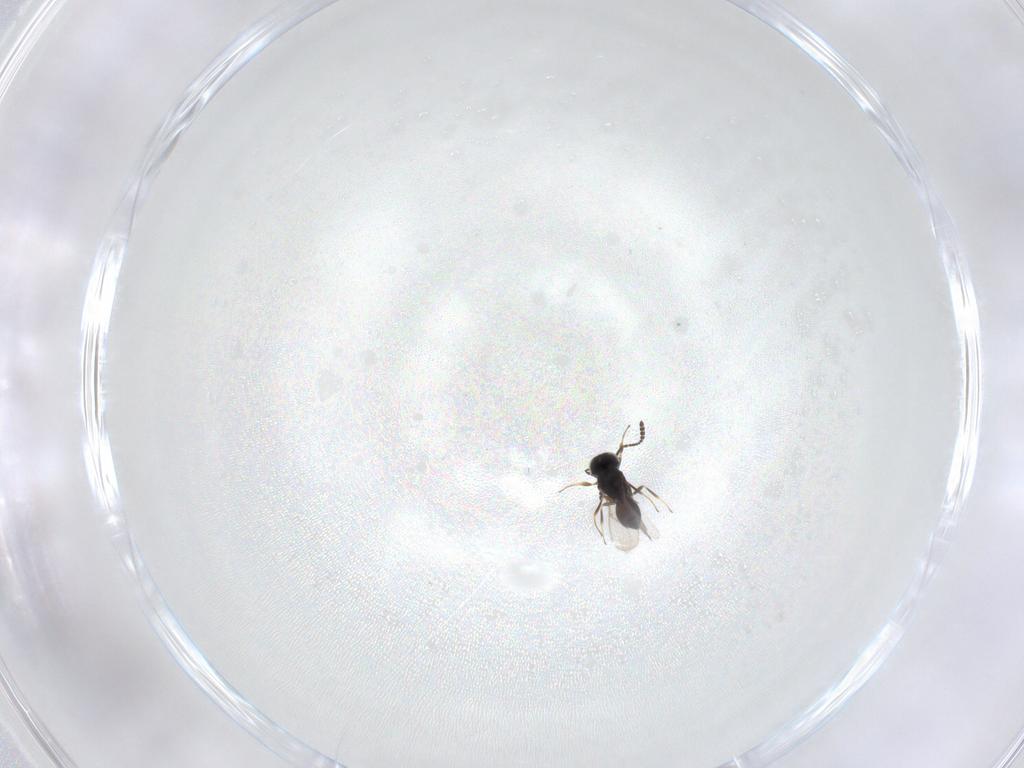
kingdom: Animalia
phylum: Arthropoda
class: Insecta
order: Hymenoptera
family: Scelionidae
